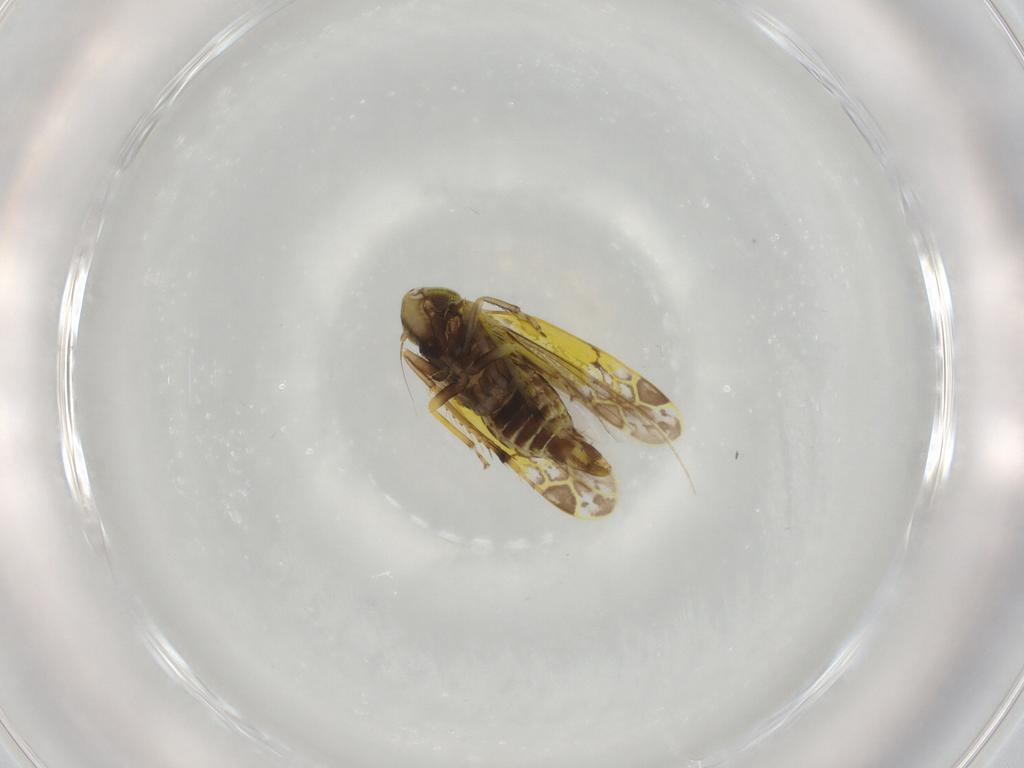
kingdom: Animalia
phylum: Arthropoda
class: Insecta
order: Hemiptera
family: Cicadellidae
